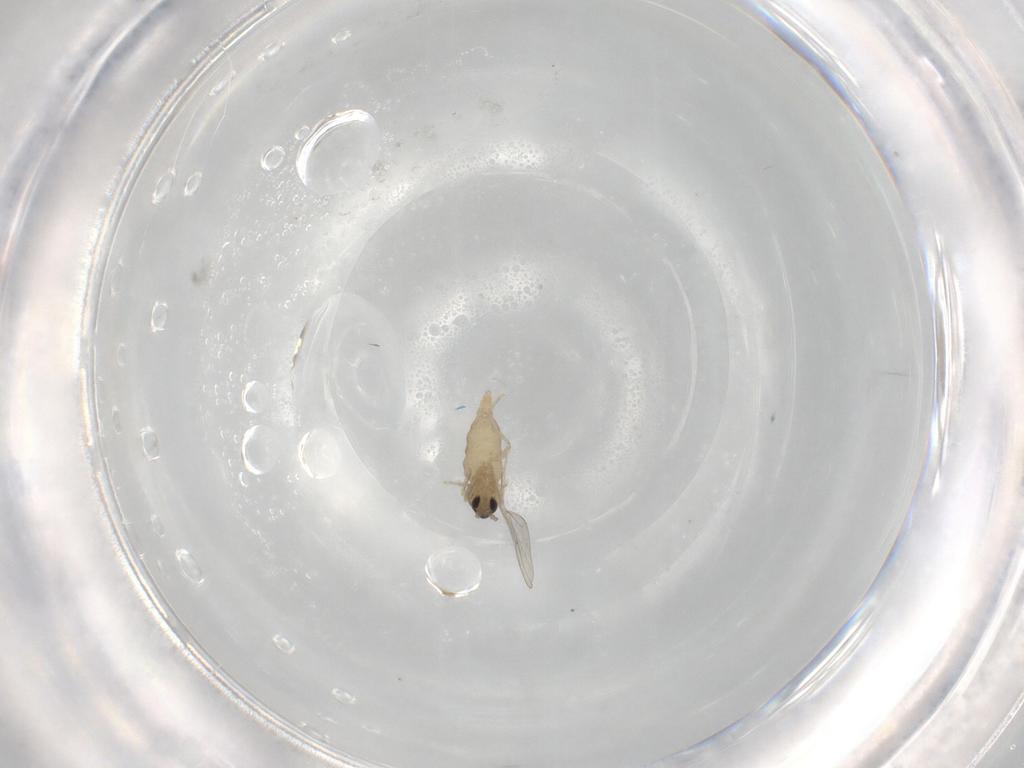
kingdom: Animalia
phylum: Arthropoda
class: Insecta
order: Diptera
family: Cecidomyiidae
